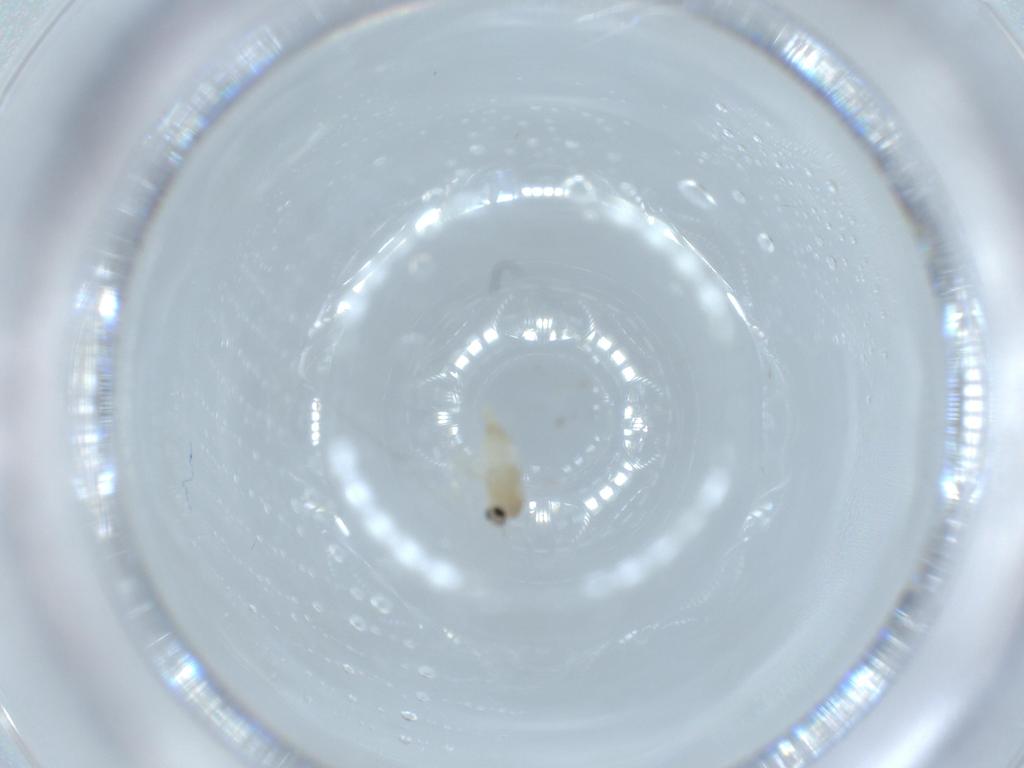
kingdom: Animalia
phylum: Arthropoda
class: Insecta
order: Diptera
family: Cecidomyiidae
